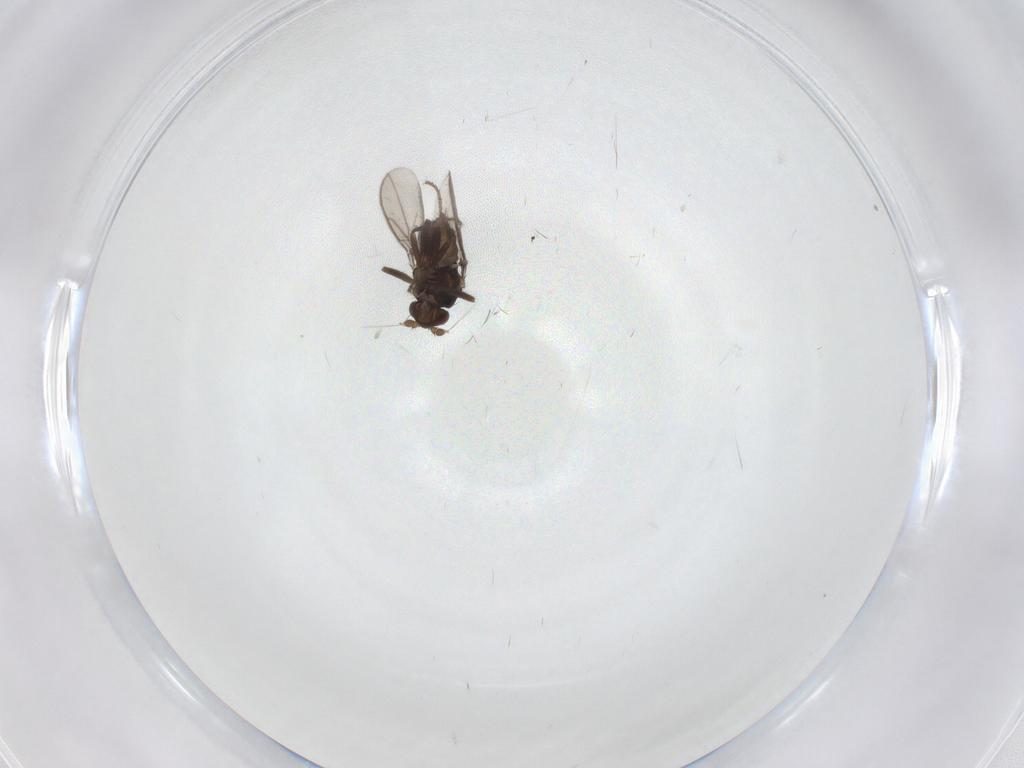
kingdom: Animalia
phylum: Arthropoda
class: Insecta
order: Diptera
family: Sphaeroceridae
